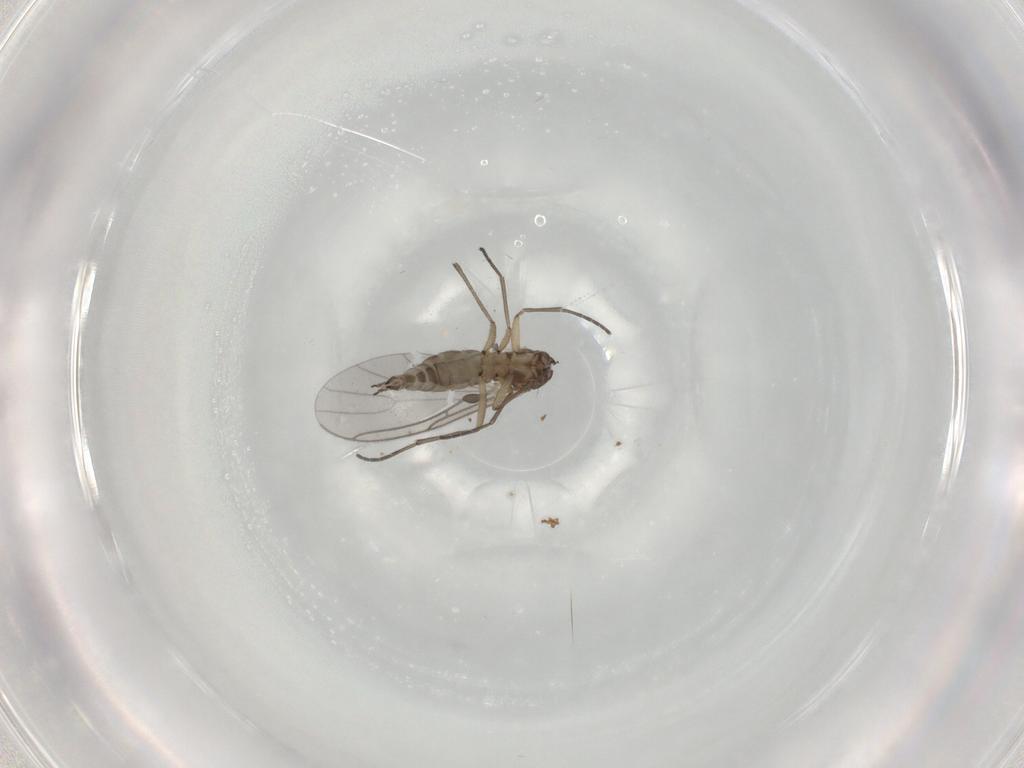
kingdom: Animalia
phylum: Arthropoda
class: Insecta
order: Diptera
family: Sciaridae
